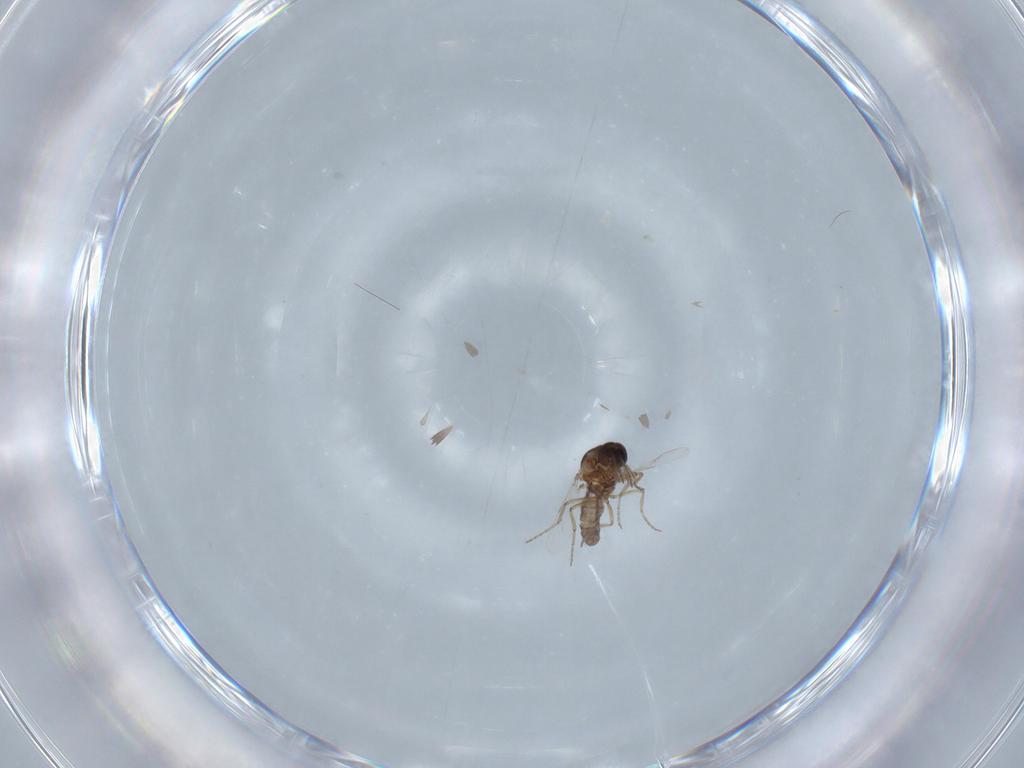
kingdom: Animalia
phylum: Arthropoda
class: Insecta
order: Diptera
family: Ceratopogonidae
